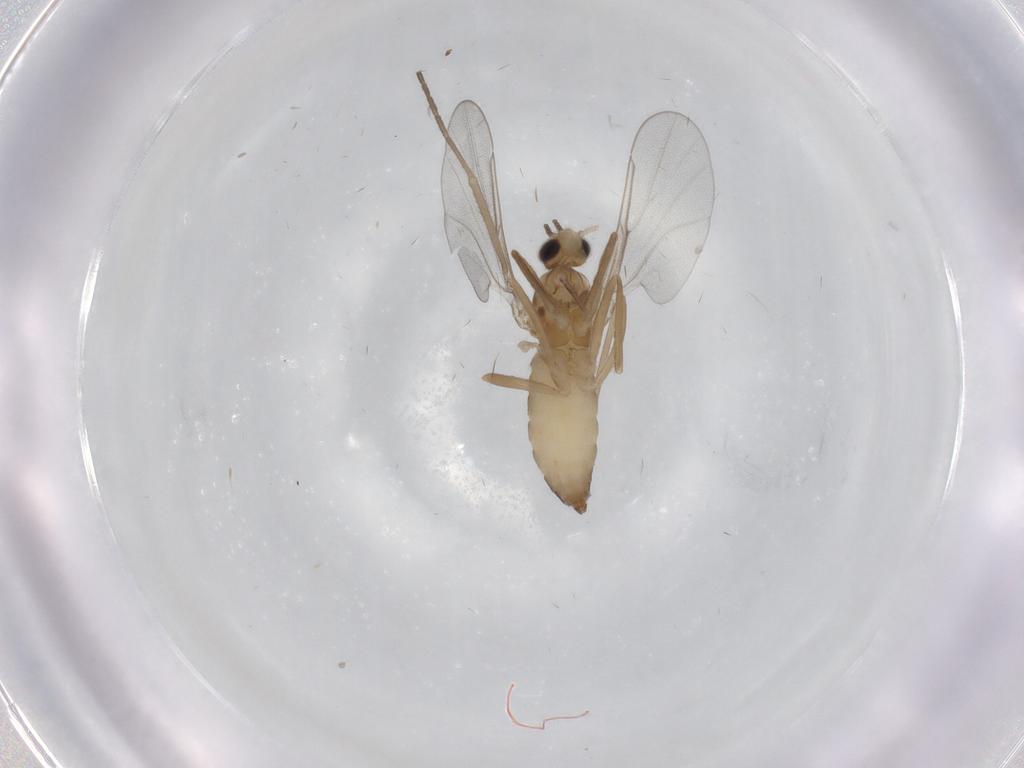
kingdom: Animalia
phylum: Arthropoda
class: Insecta
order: Diptera
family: Sciaridae
